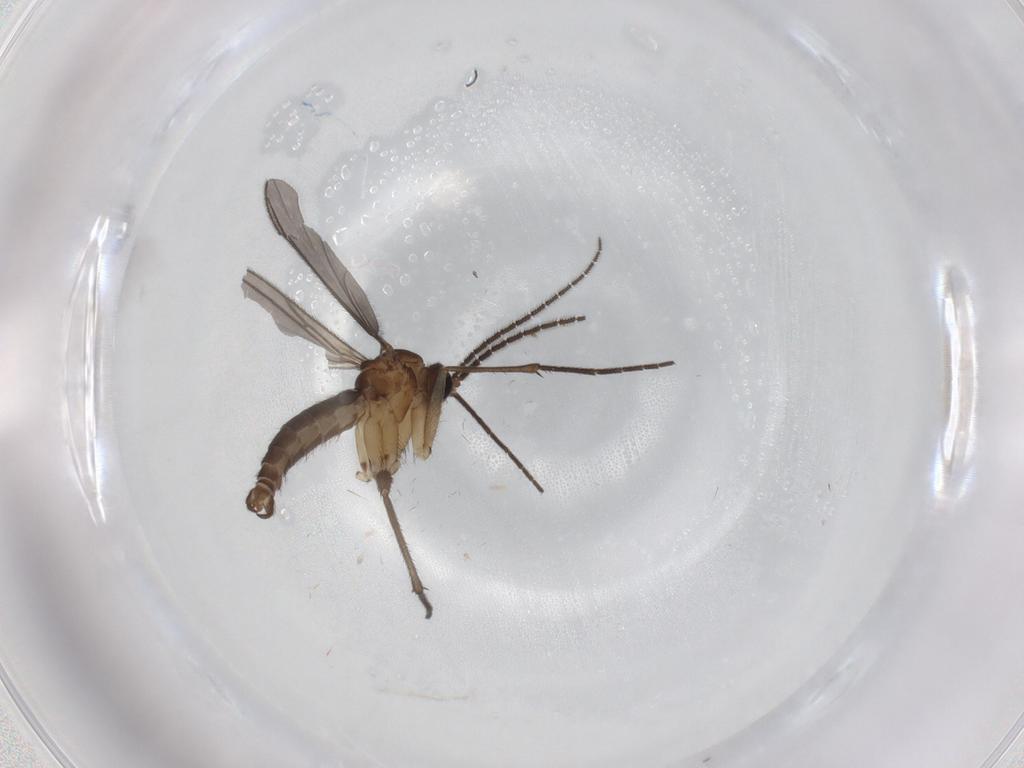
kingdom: Animalia
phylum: Arthropoda
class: Insecta
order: Diptera
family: Sciaridae
